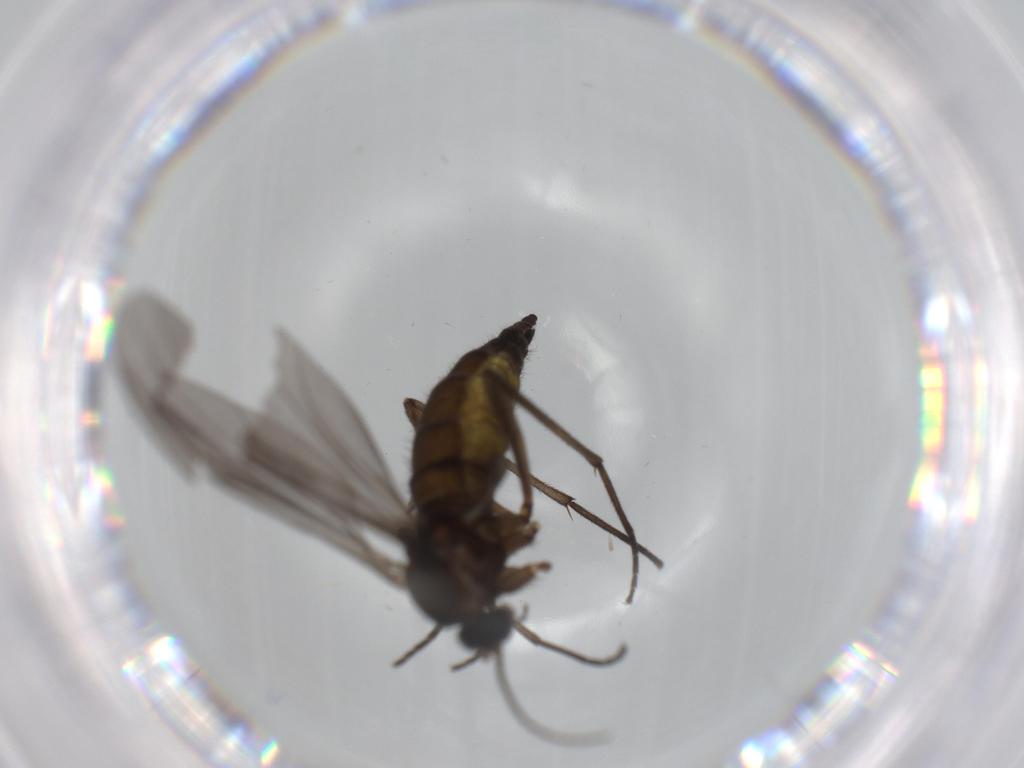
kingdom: Animalia
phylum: Arthropoda
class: Insecta
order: Diptera
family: Sciaridae
